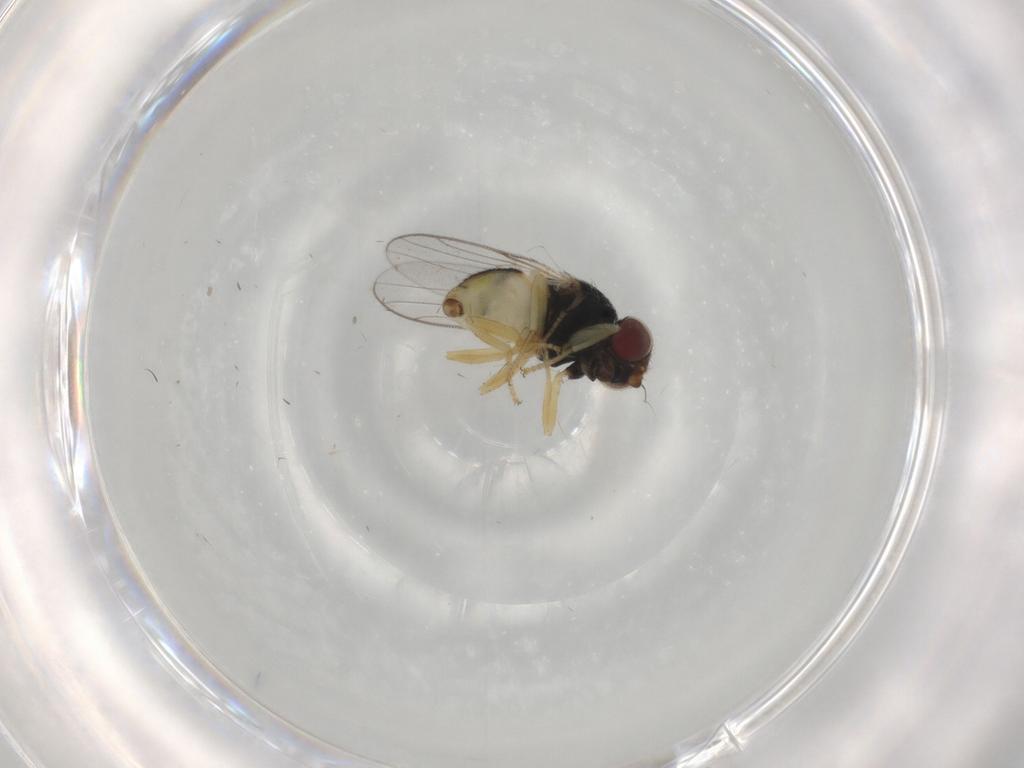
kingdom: Animalia
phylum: Arthropoda
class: Insecta
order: Diptera
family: Chloropidae
